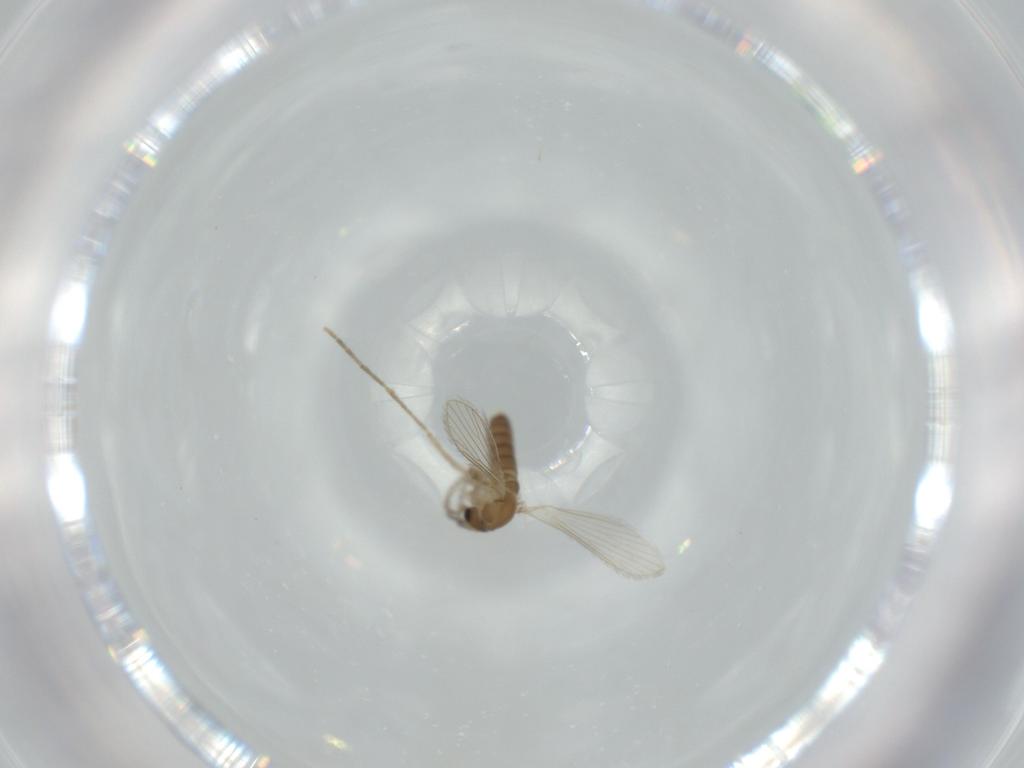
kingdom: Animalia
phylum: Arthropoda
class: Insecta
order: Diptera
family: Psychodidae
